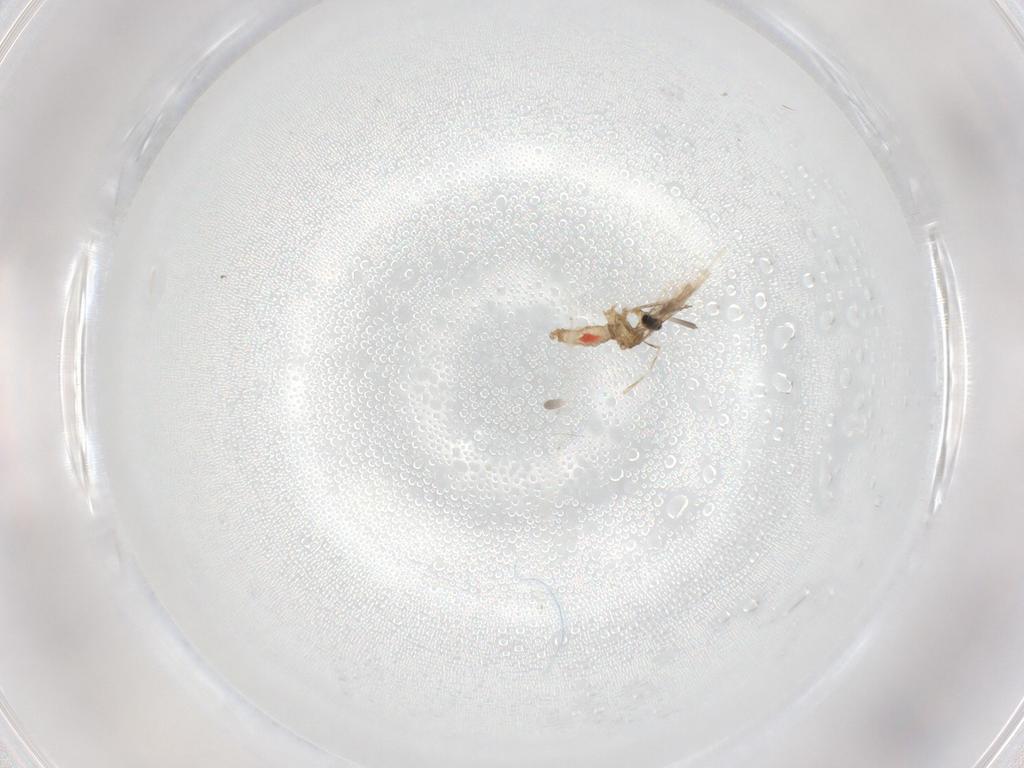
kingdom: Animalia
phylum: Arthropoda
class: Insecta
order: Diptera
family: Cecidomyiidae
